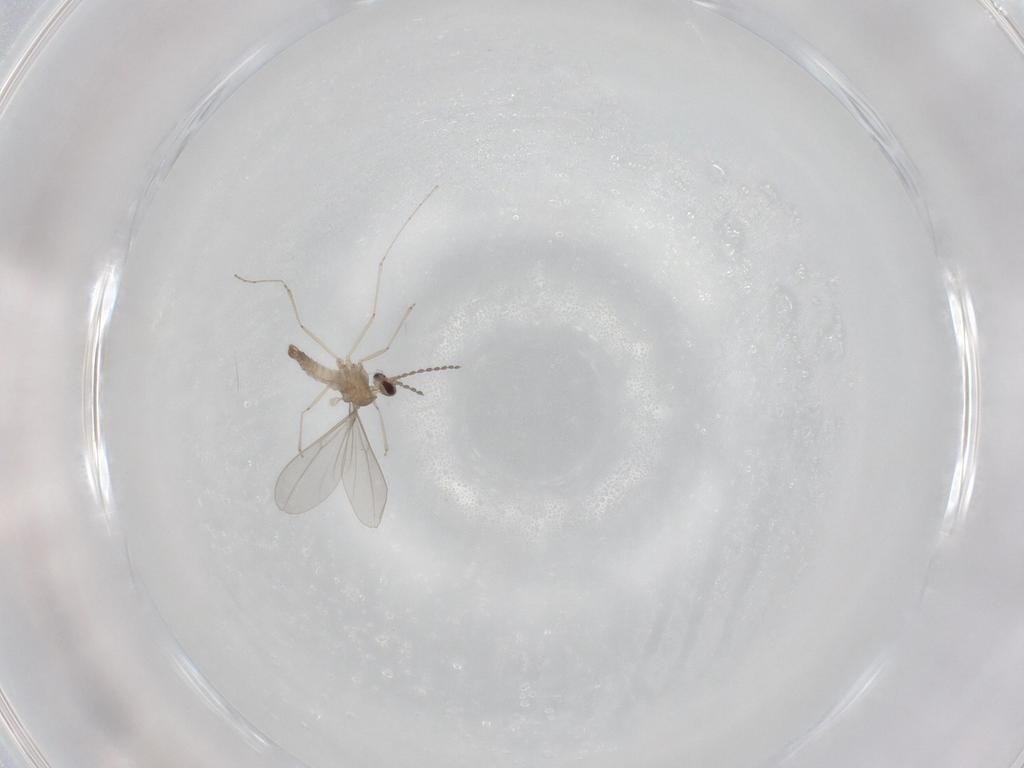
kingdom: Animalia
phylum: Arthropoda
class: Insecta
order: Diptera
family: Cecidomyiidae
